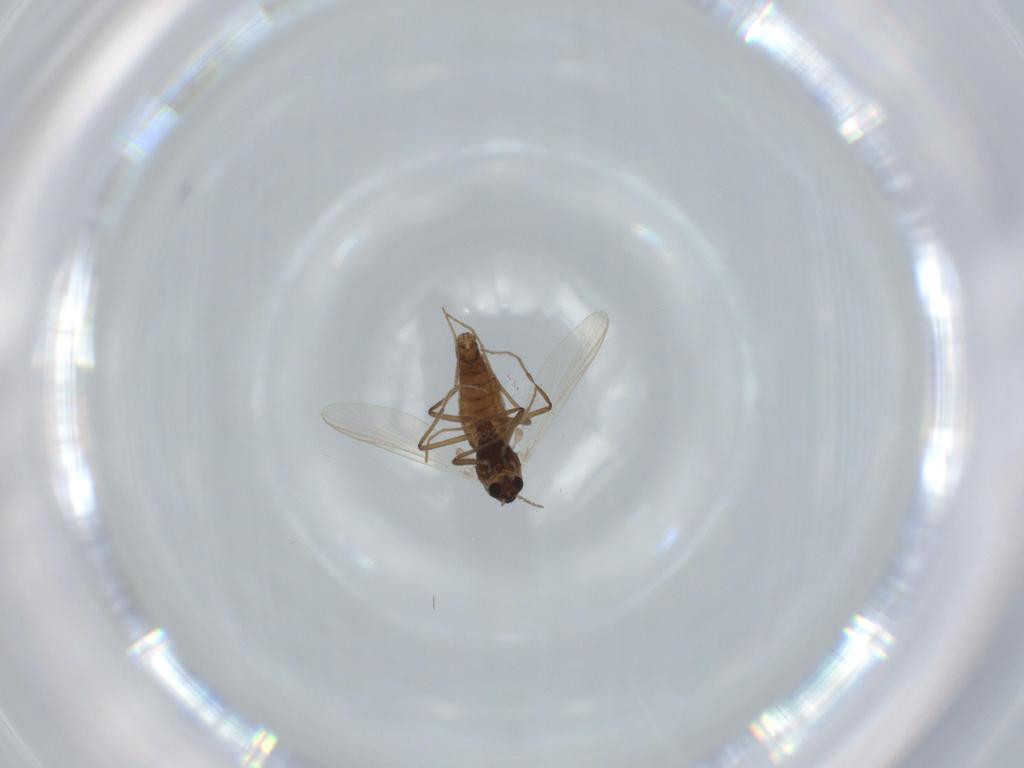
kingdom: Animalia
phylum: Arthropoda
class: Insecta
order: Diptera
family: Chironomidae
